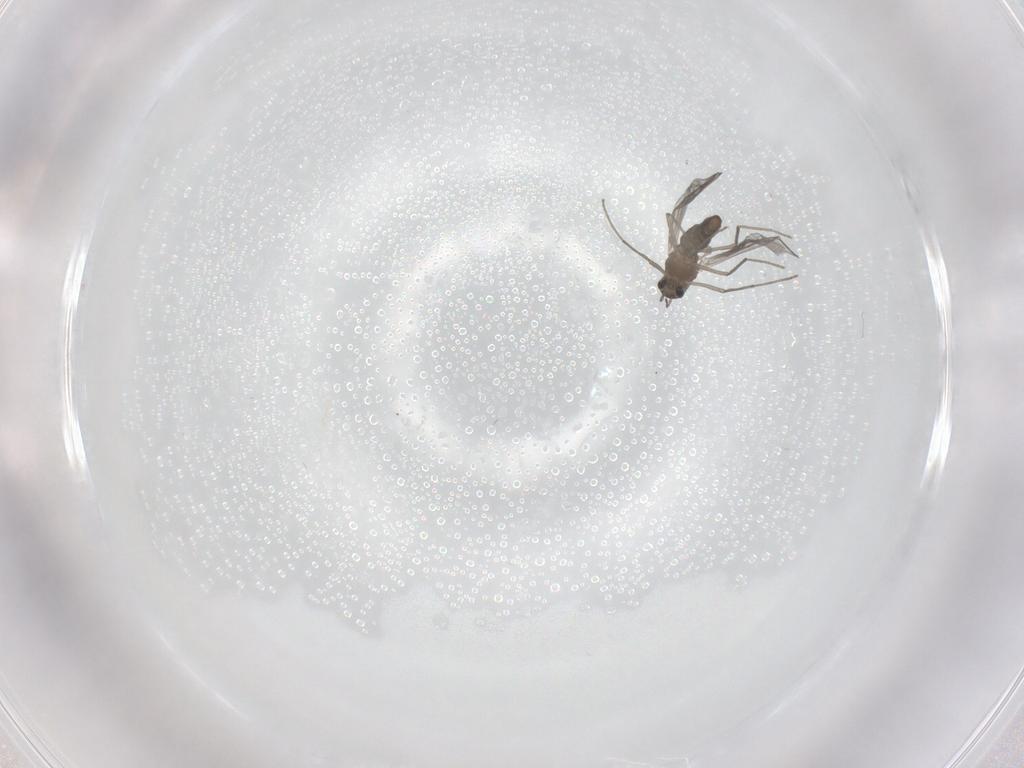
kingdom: Animalia
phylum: Arthropoda
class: Insecta
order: Diptera
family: Chironomidae
